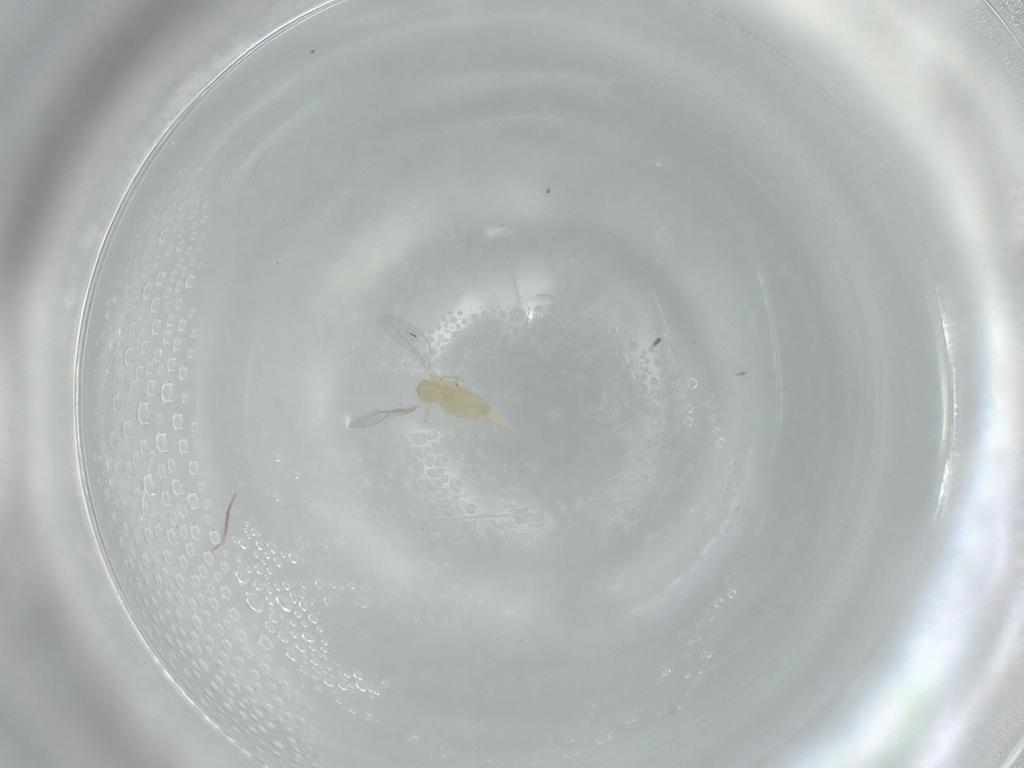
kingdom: Animalia
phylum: Arthropoda
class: Insecta
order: Diptera
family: Cecidomyiidae
